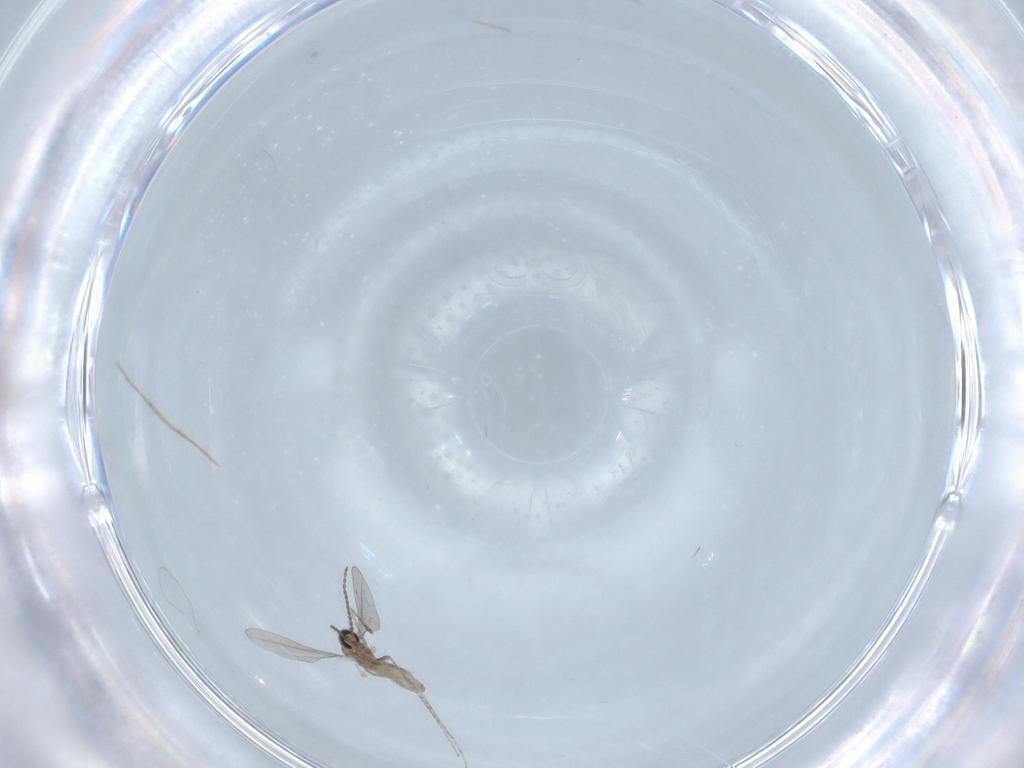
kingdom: Animalia
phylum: Arthropoda
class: Insecta
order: Diptera
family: Cecidomyiidae
